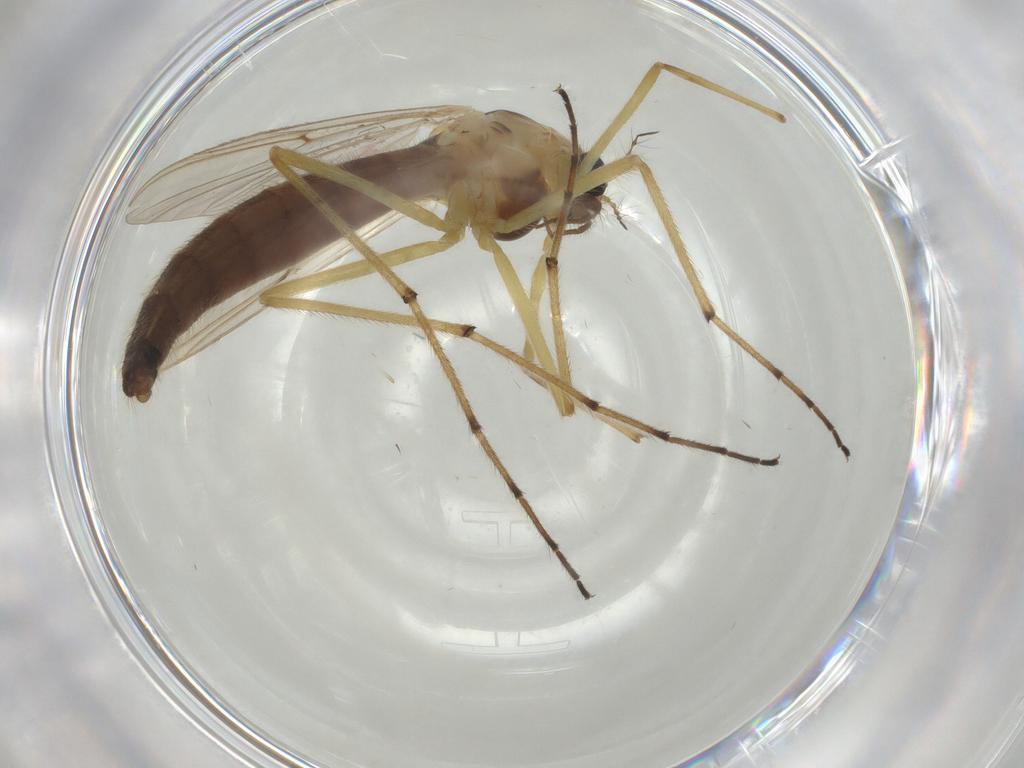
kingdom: Animalia
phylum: Arthropoda
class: Insecta
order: Diptera
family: Chironomidae
